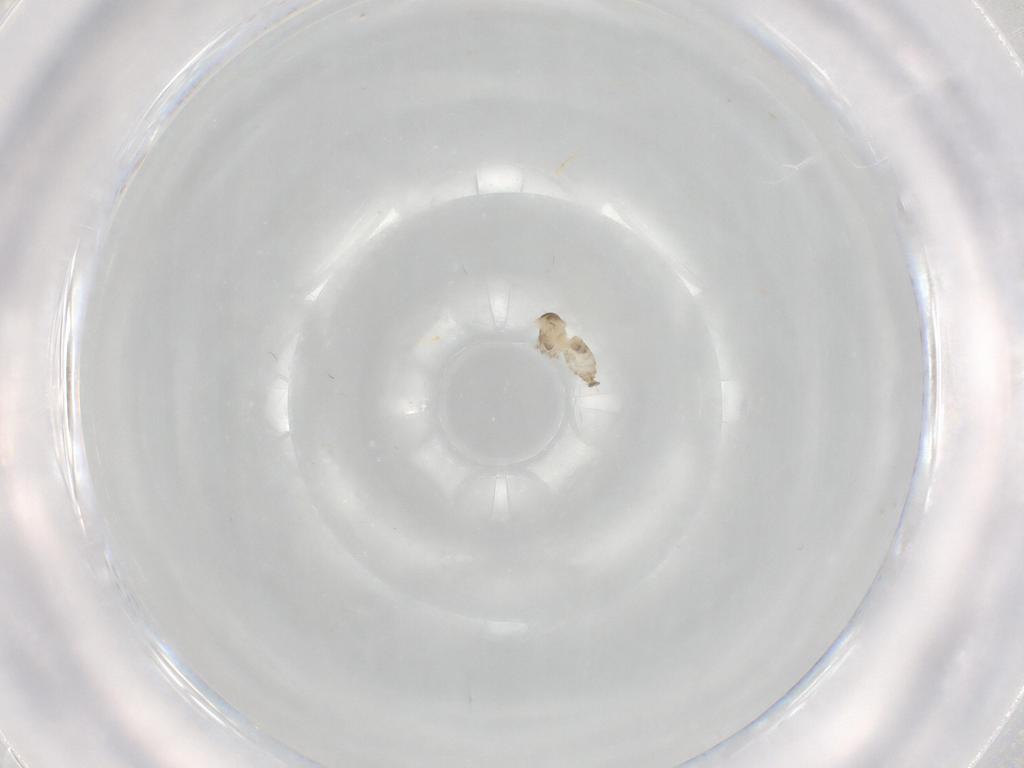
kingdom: Animalia
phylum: Arthropoda
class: Insecta
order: Diptera
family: Cecidomyiidae
